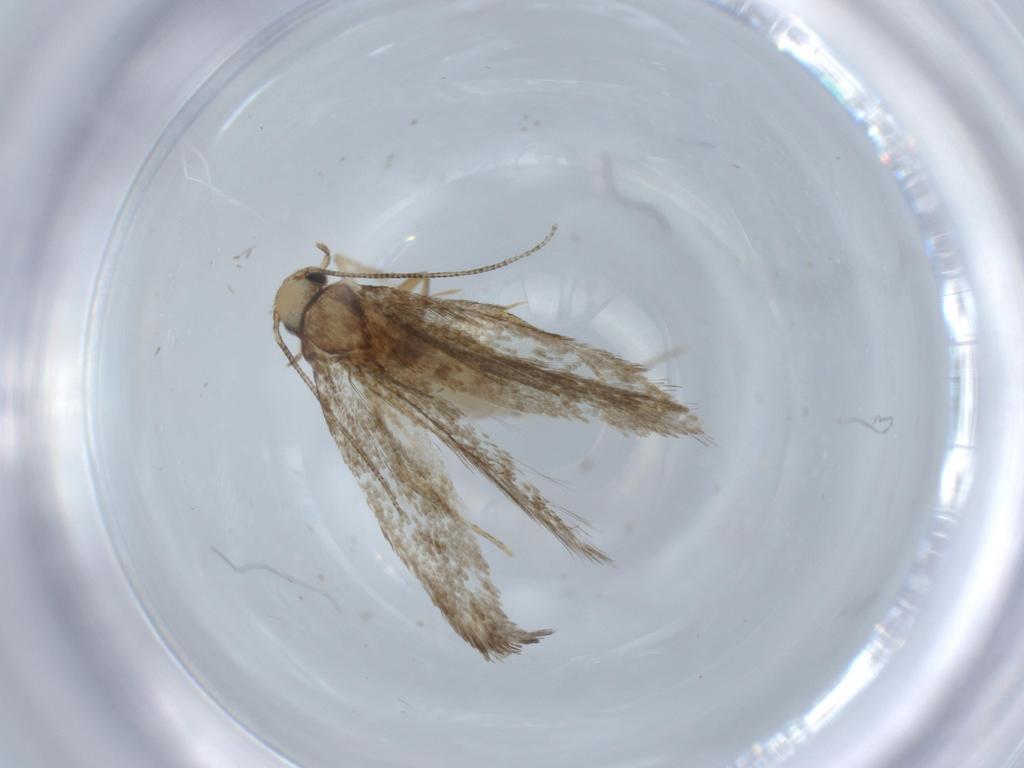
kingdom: Animalia
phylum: Arthropoda
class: Insecta
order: Lepidoptera
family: Tineidae
